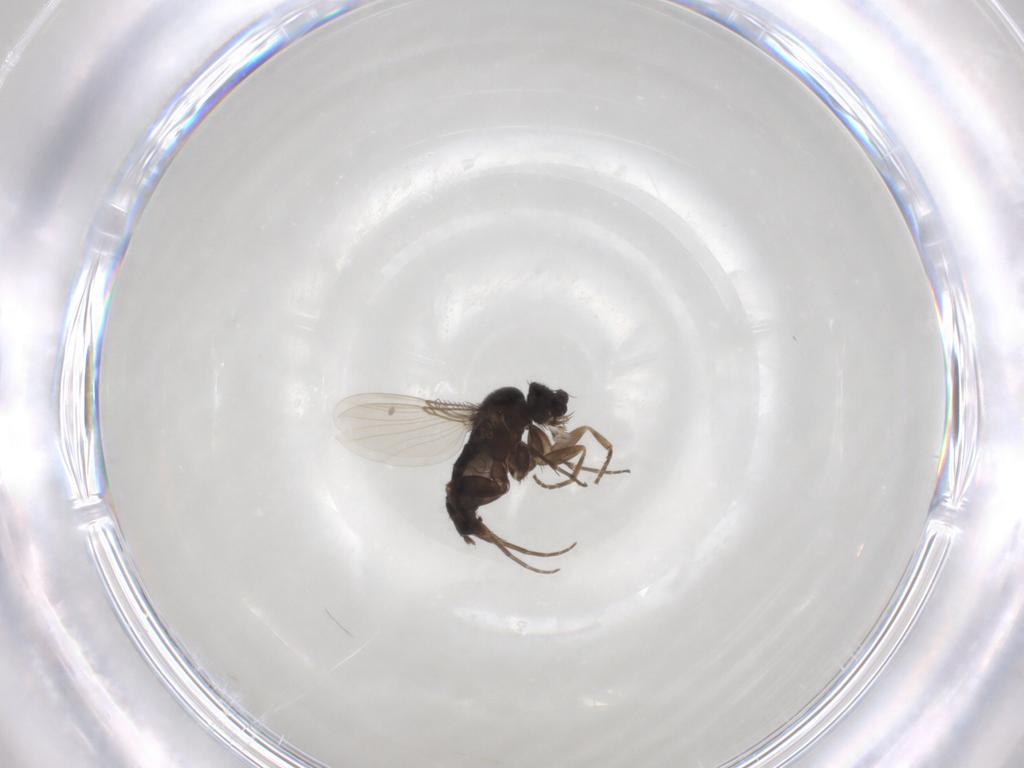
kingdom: Animalia
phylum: Arthropoda
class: Insecta
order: Diptera
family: Phoridae
